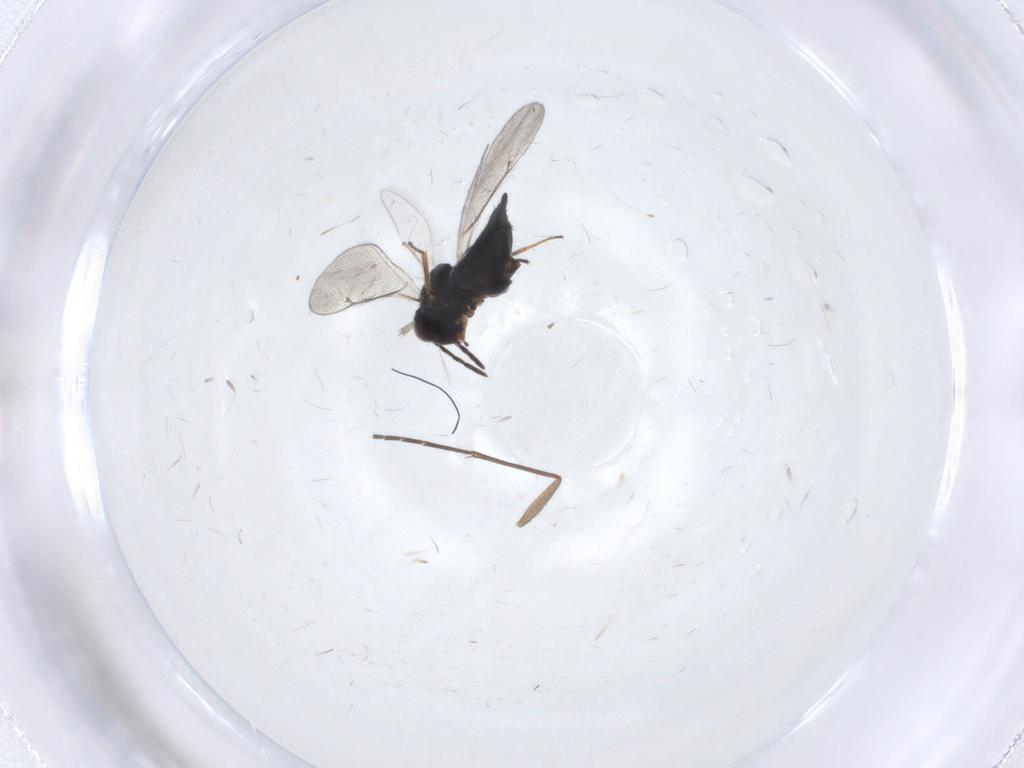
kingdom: Animalia
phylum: Arthropoda
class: Insecta
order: Hymenoptera
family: Eulophidae
